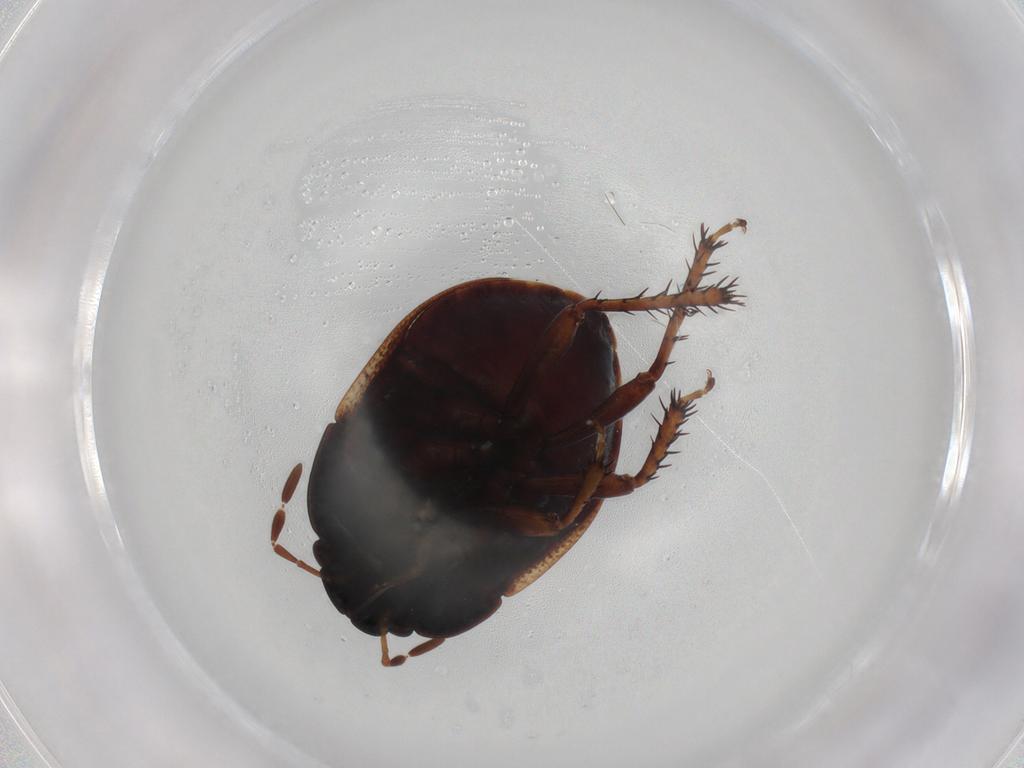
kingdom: Animalia
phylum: Arthropoda
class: Insecta
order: Hemiptera
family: Cydnidae
